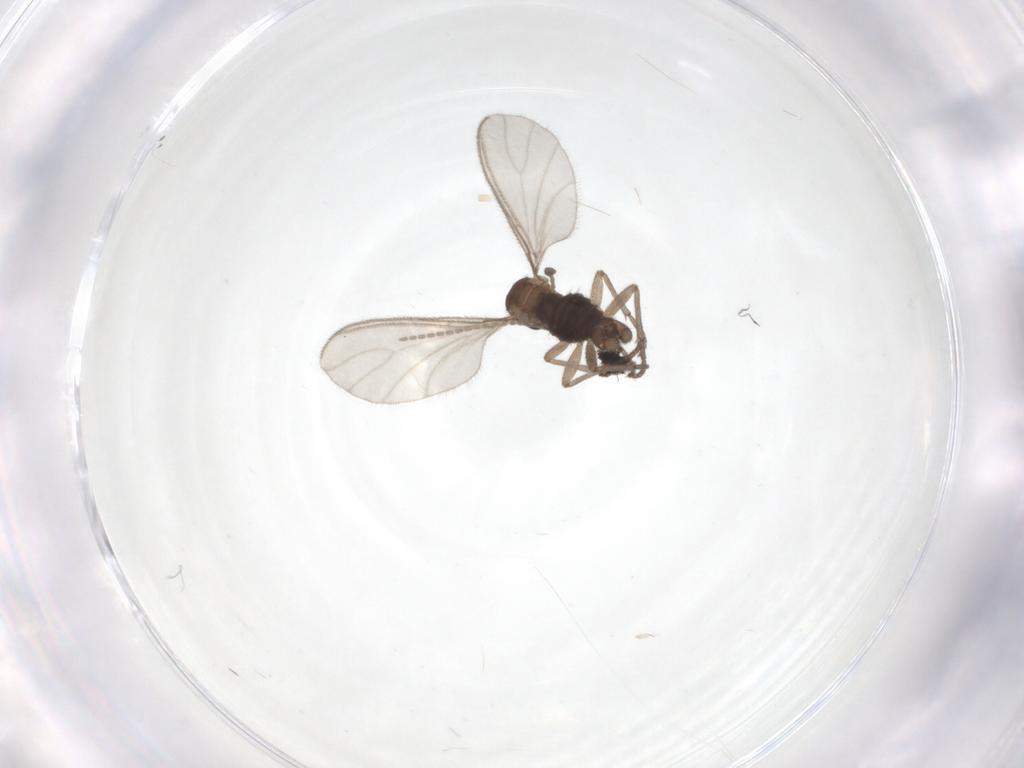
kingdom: Animalia
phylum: Arthropoda
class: Insecta
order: Diptera
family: Sciaridae
